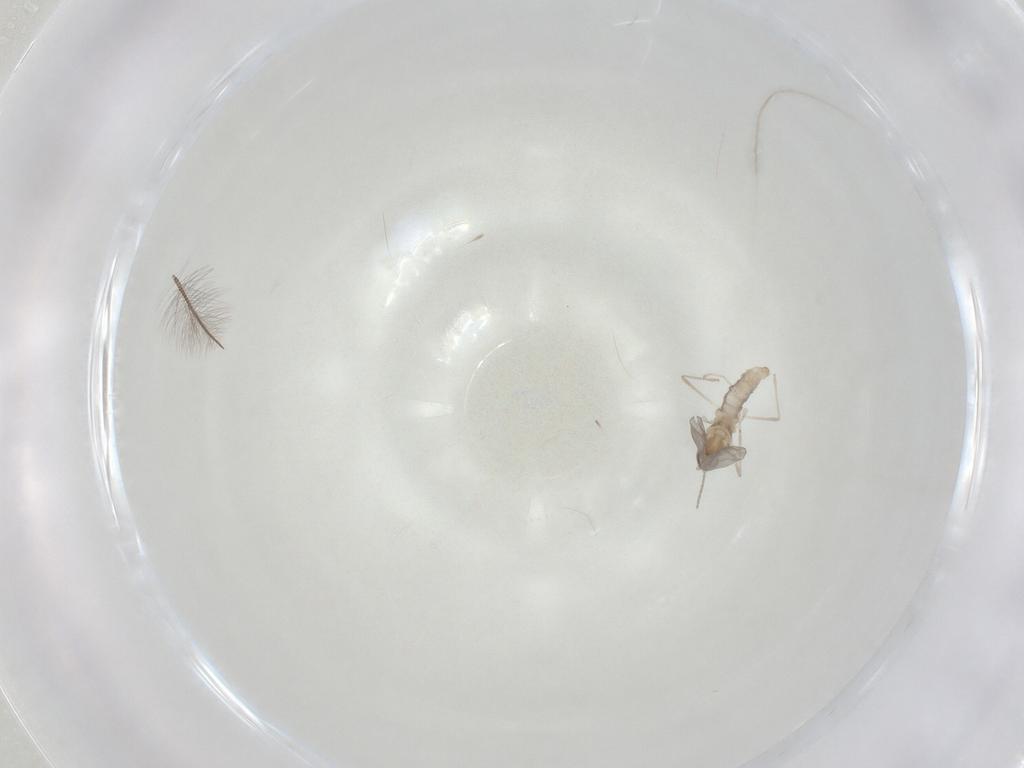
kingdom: Animalia
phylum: Arthropoda
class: Insecta
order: Diptera
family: Cecidomyiidae
